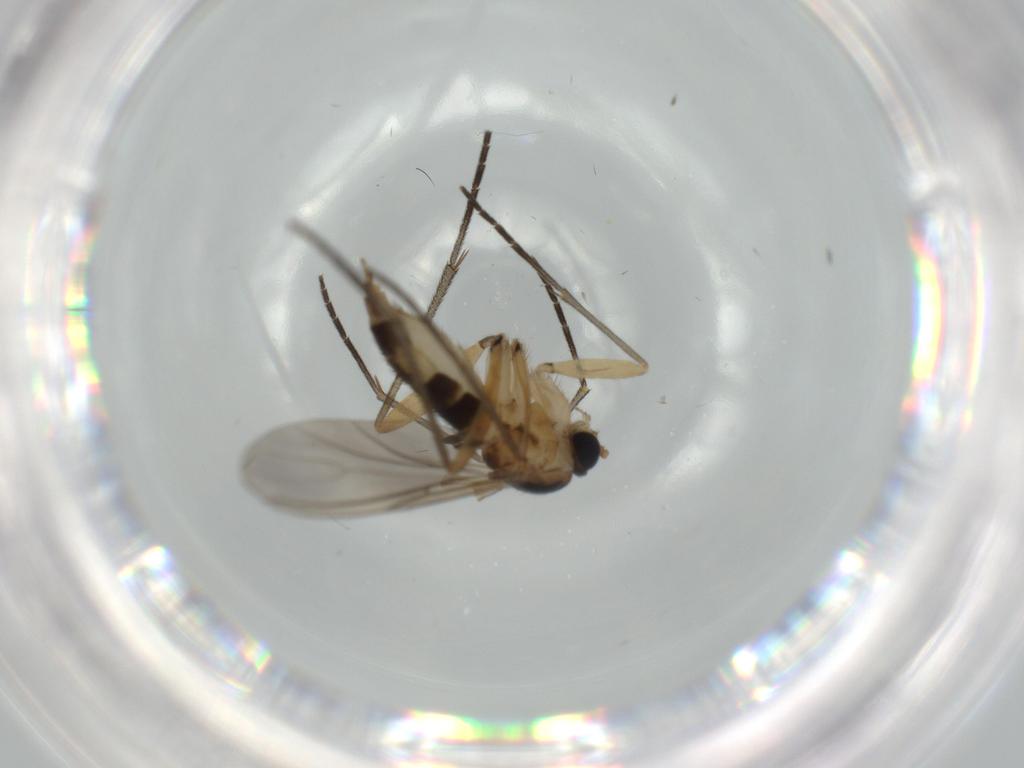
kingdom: Animalia
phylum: Arthropoda
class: Insecta
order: Diptera
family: Sciaridae
